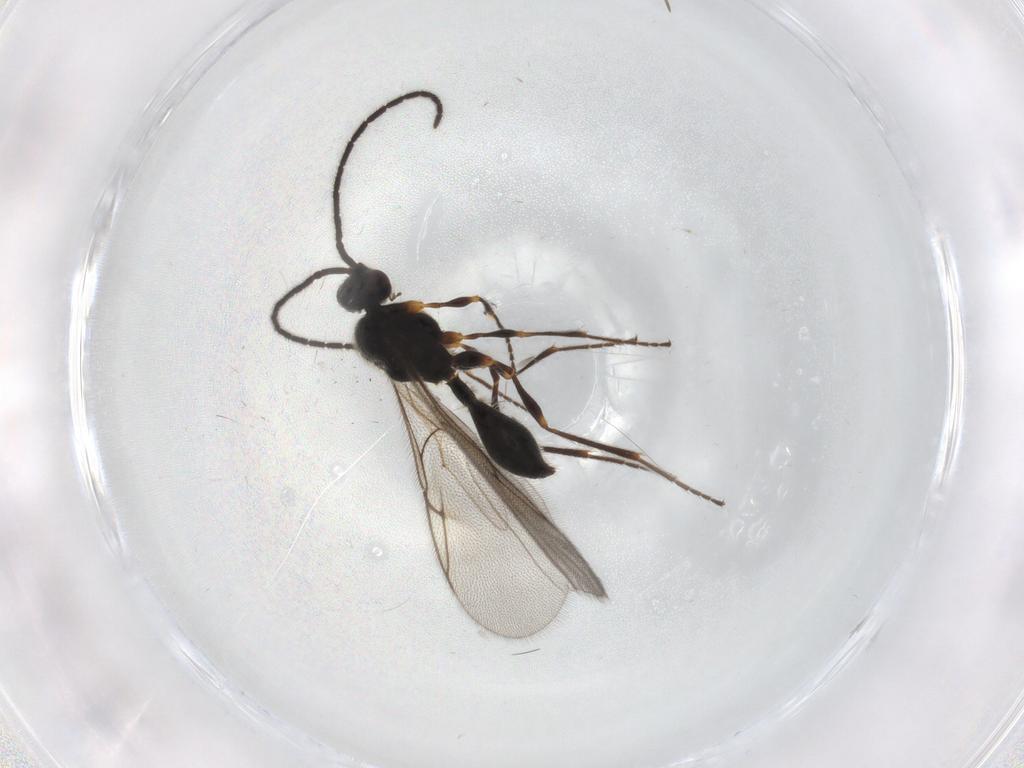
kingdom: Animalia
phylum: Arthropoda
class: Insecta
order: Hymenoptera
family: Diapriidae
